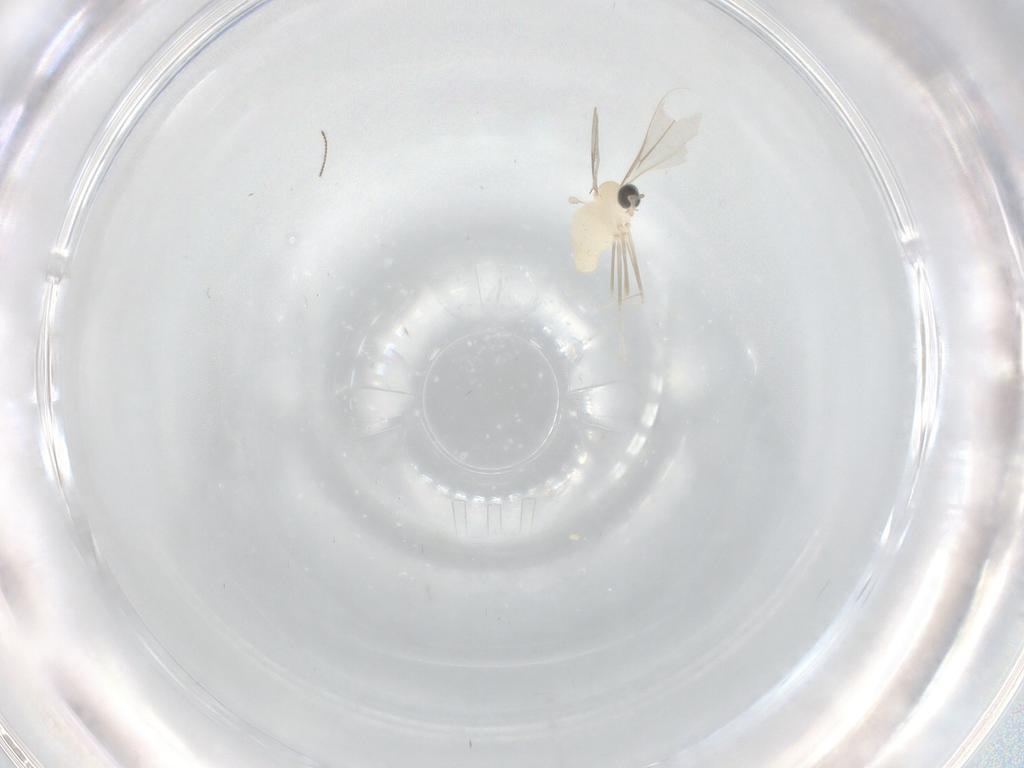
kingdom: Animalia
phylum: Arthropoda
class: Insecta
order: Diptera
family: Cecidomyiidae
